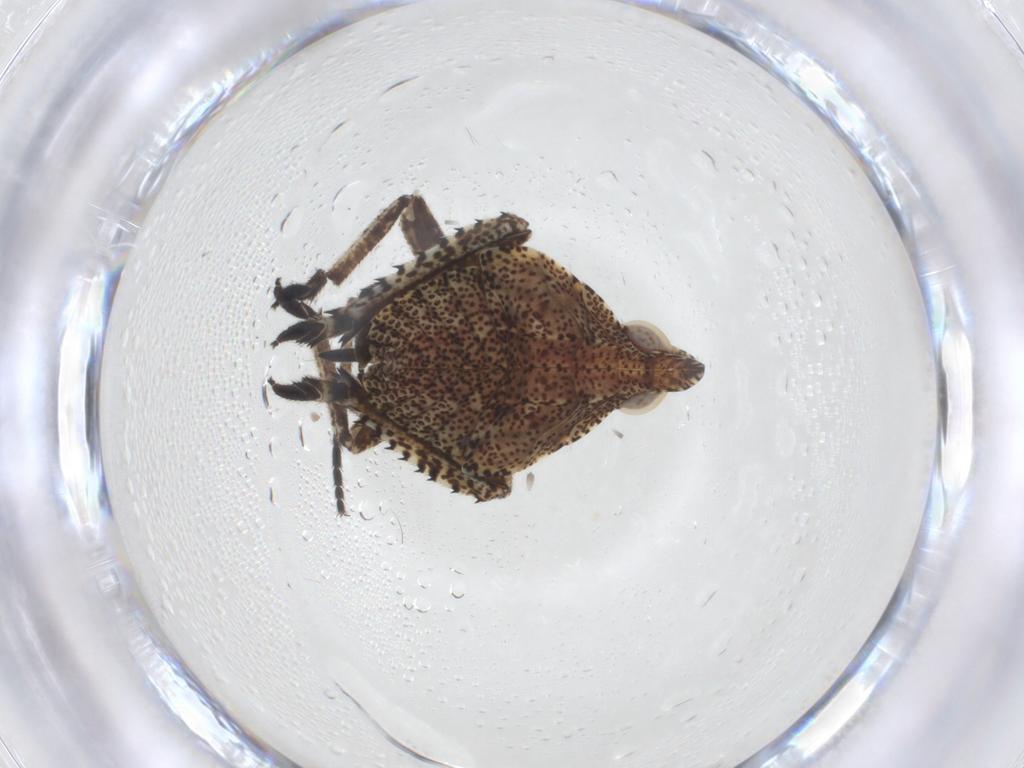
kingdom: Animalia
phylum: Arthropoda
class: Insecta
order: Hemiptera
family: Dictyopharidae
